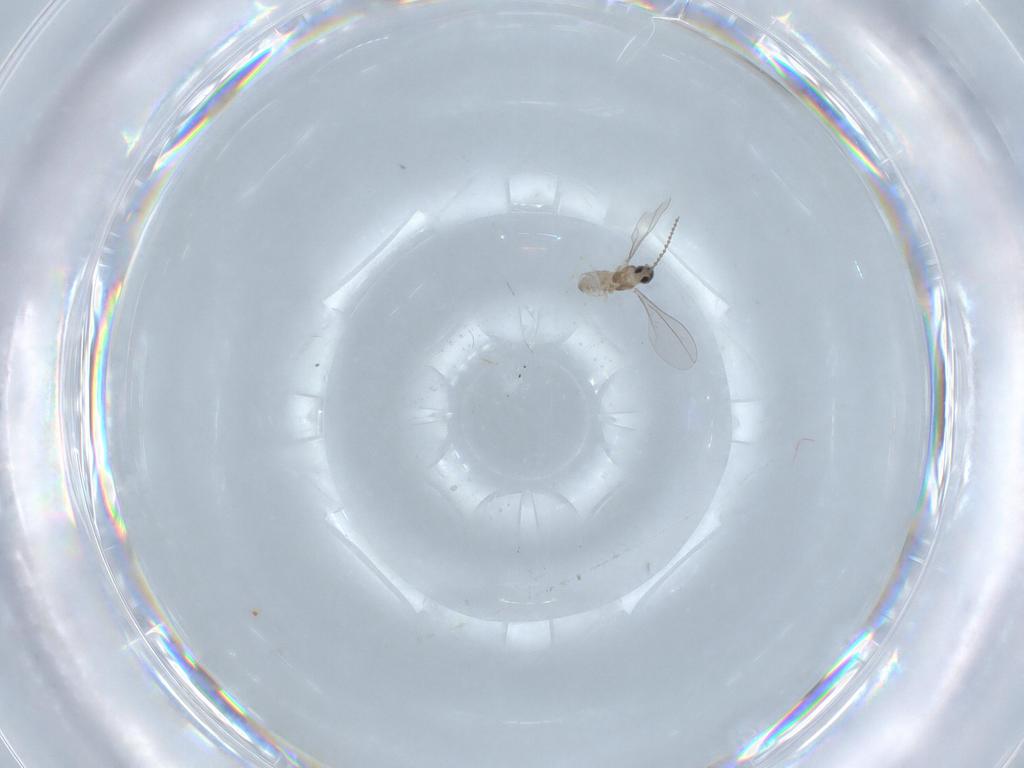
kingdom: Animalia
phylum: Arthropoda
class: Insecta
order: Diptera
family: Cecidomyiidae
